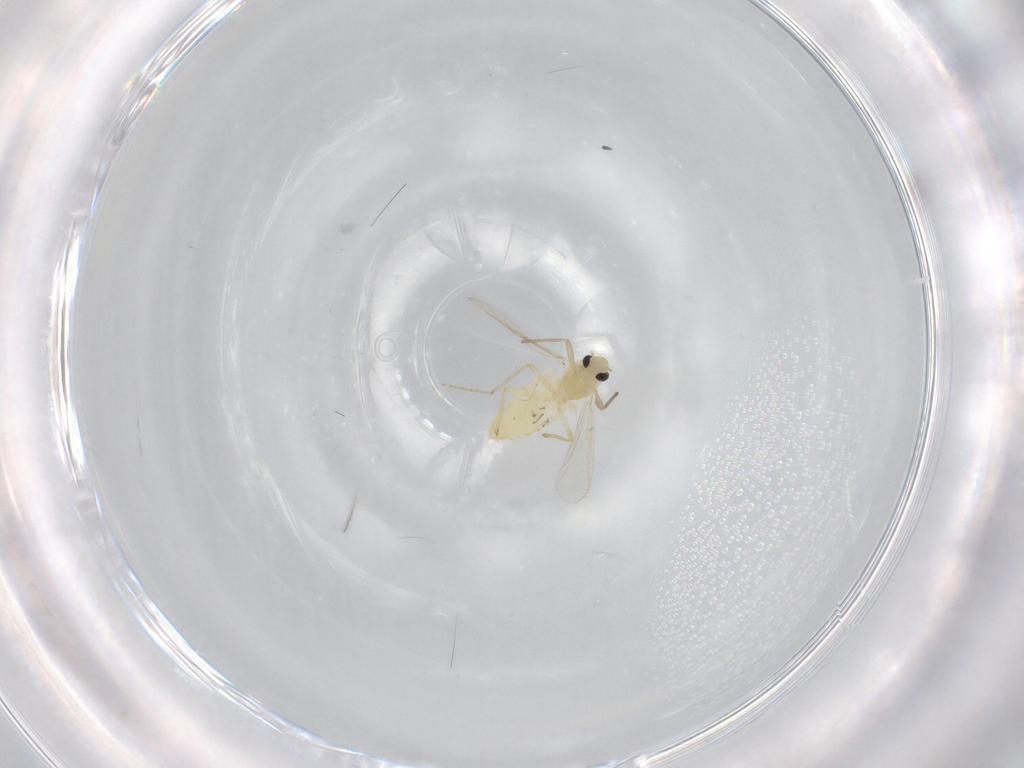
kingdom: Animalia
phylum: Arthropoda
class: Insecta
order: Diptera
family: Chironomidae
